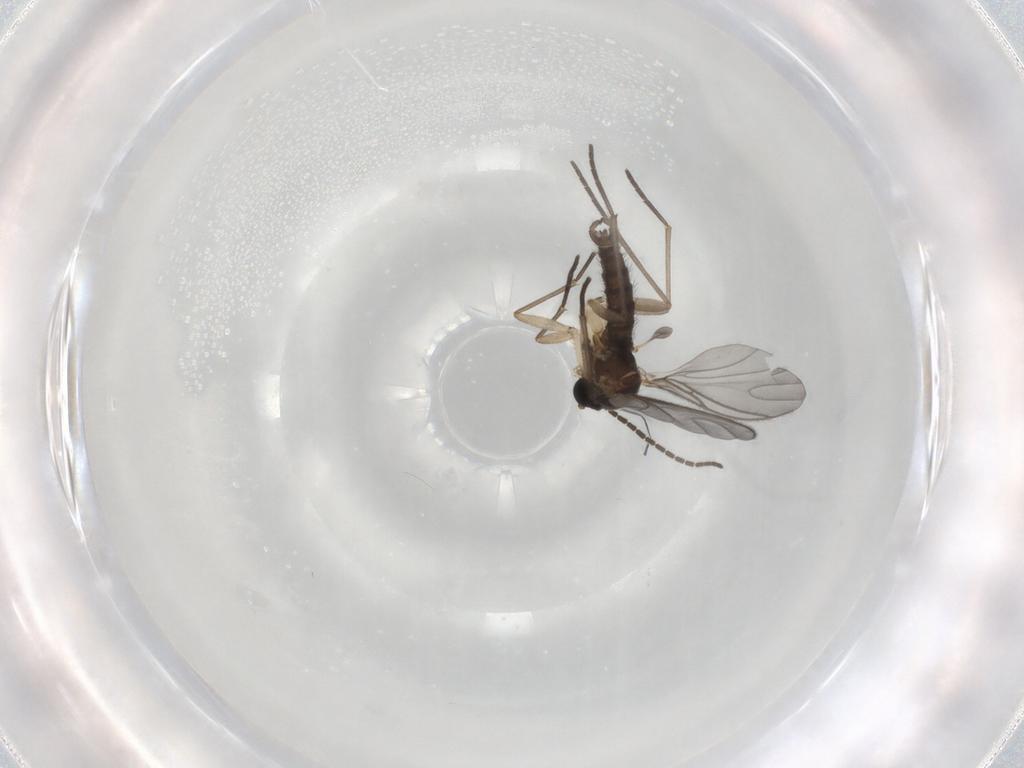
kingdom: Animalia
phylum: Arthropoda
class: Insecta
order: Diptera
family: Sciaridae
